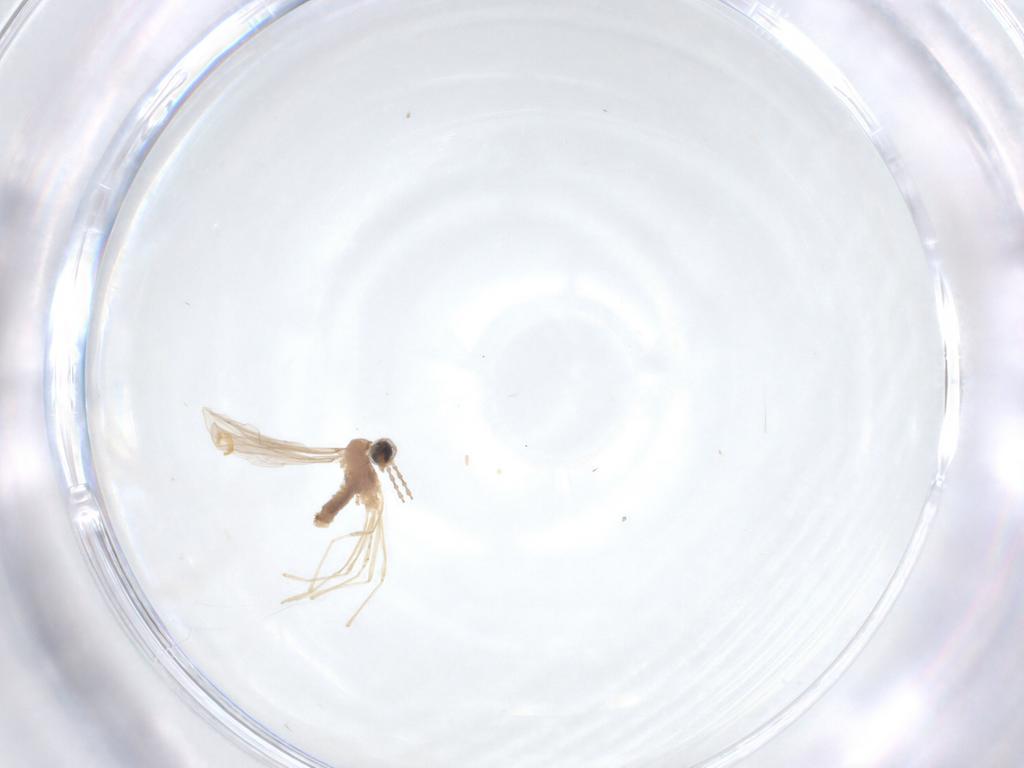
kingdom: Animalia
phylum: Arthropoda
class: Insecta
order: Diptera
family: Cecidomyiidae
